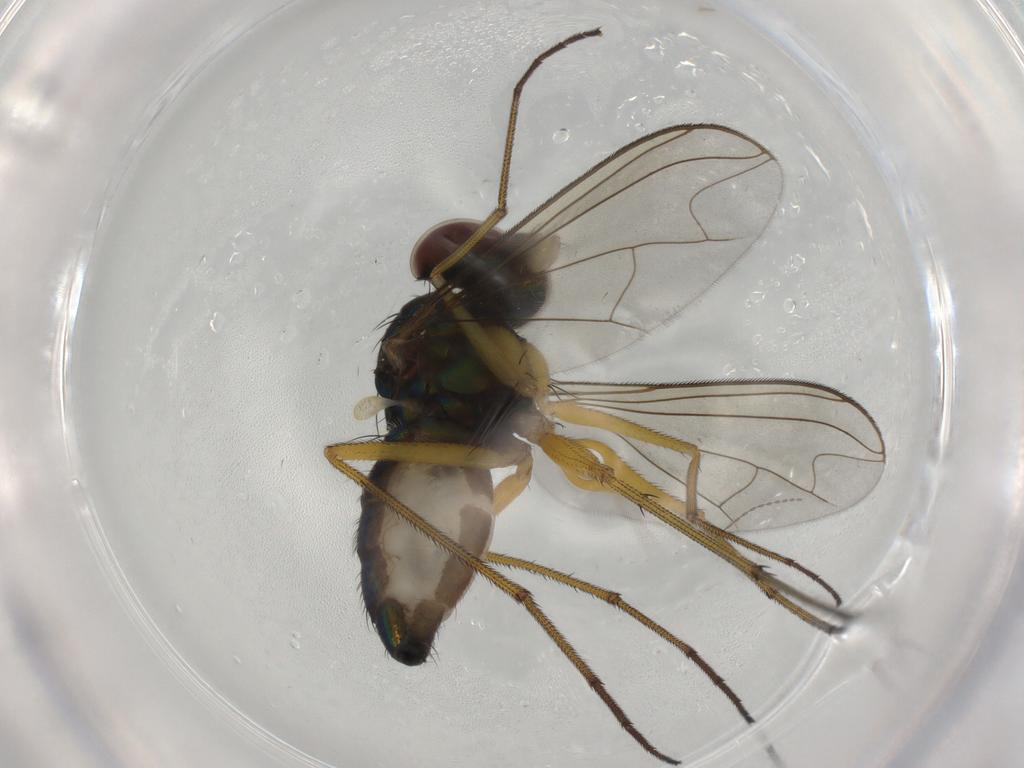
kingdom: Animalia
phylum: Arthropoda
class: Insecta
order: Diptera
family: Dolichopodidae
